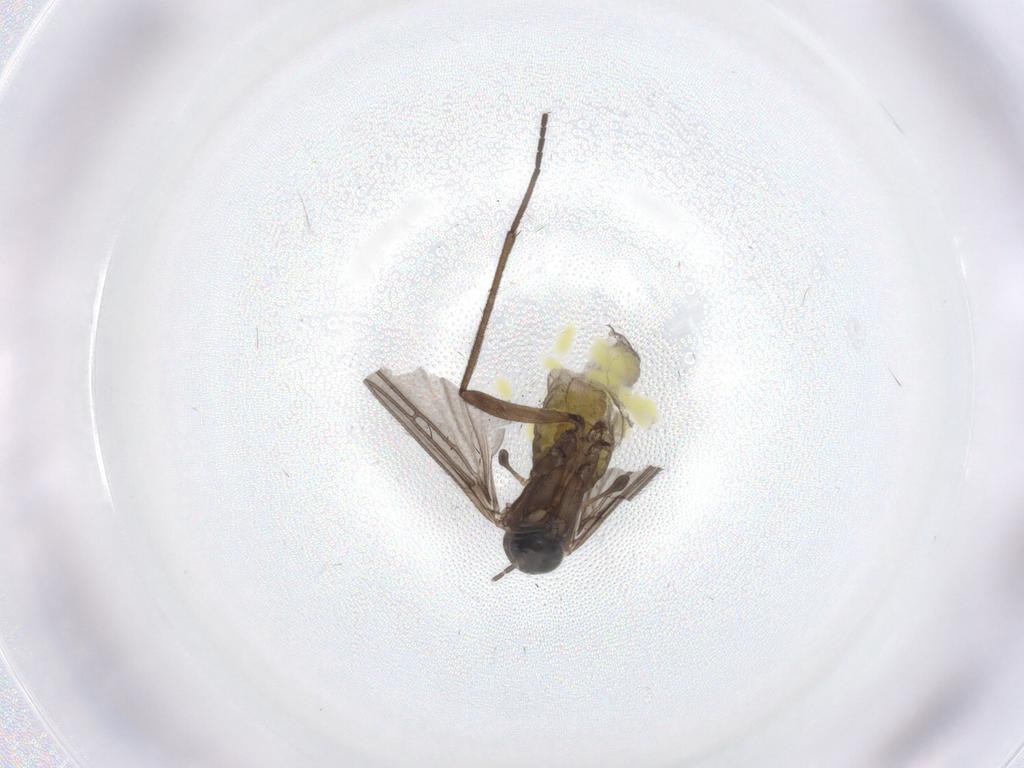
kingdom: Animalia
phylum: Arthropoda
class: Insecta
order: Diptera
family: Sciaridae
